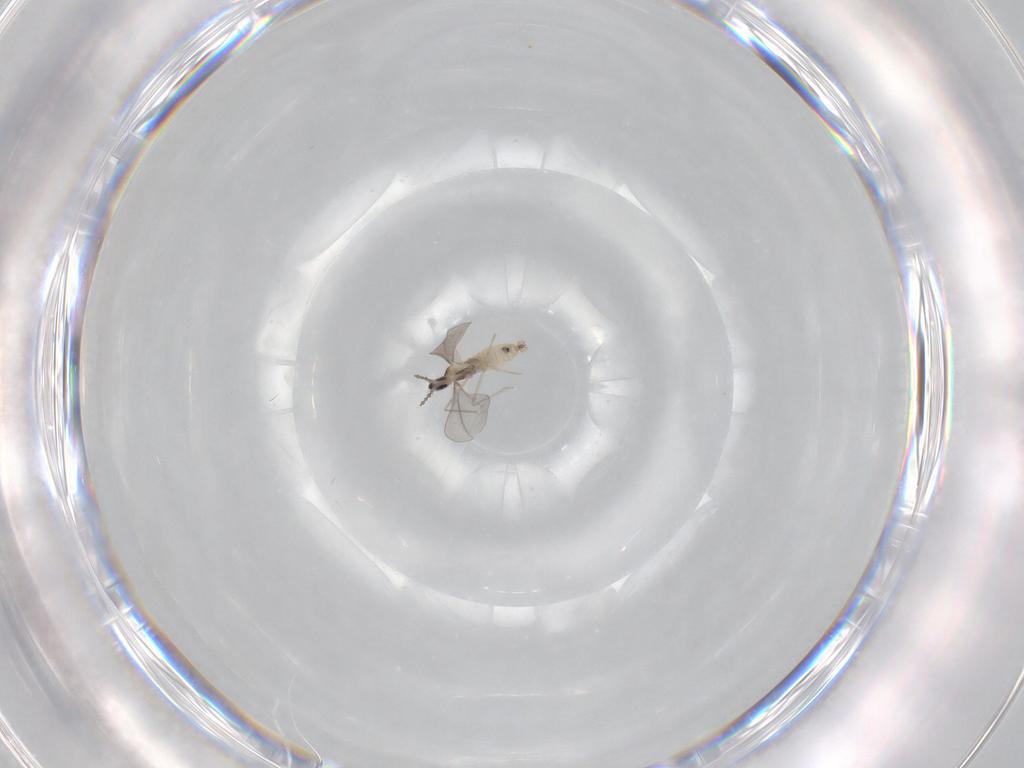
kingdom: Animalia
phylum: Arthropoda
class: Insecta
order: Diptera
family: Sciaridae
